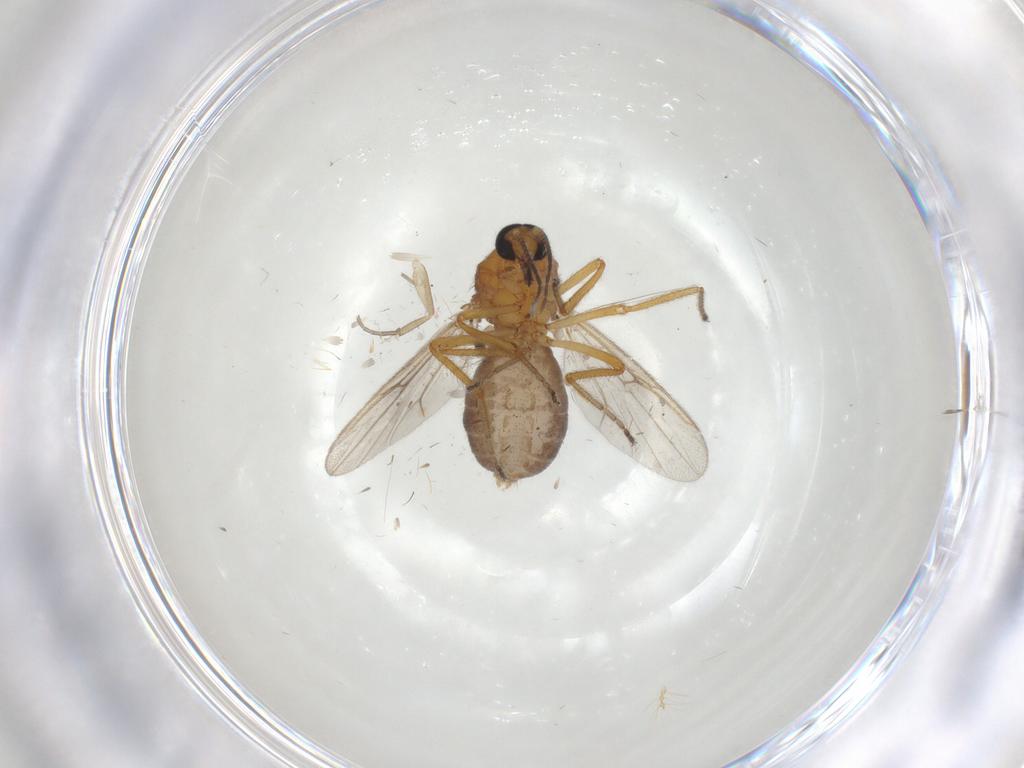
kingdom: Animalia
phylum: Arthropoda
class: Insecta
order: Diptera
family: Ceratopogonidae
